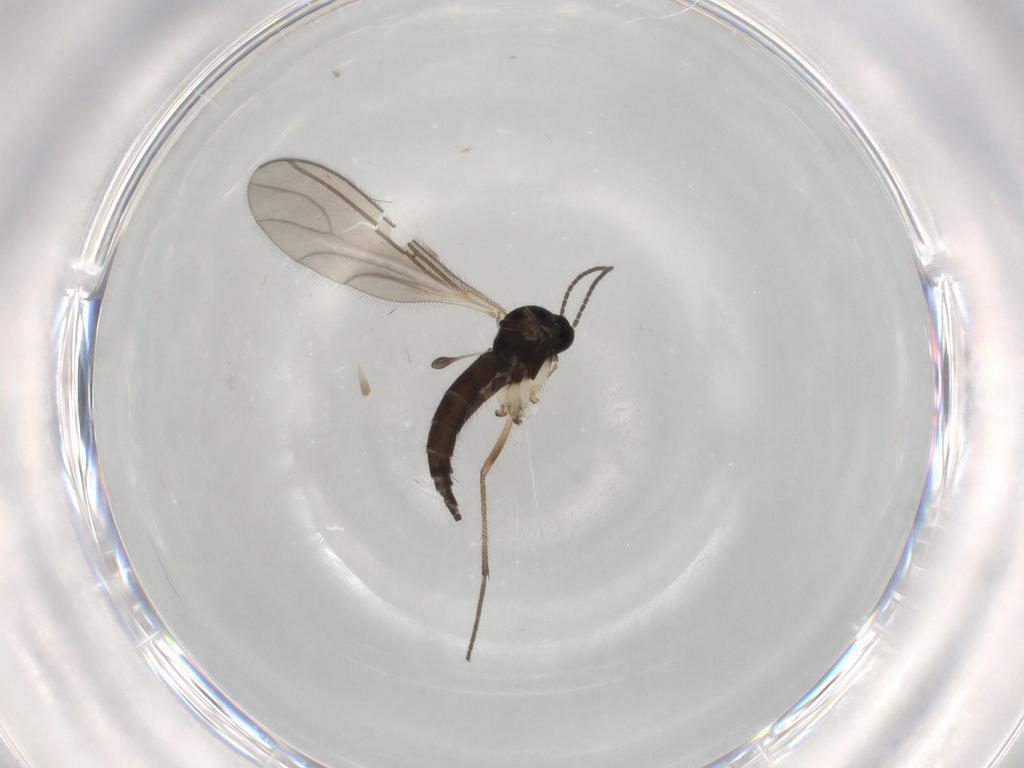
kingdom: Animalia
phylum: Arthropoda
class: Insecta
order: Diptera
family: Sciaridae
